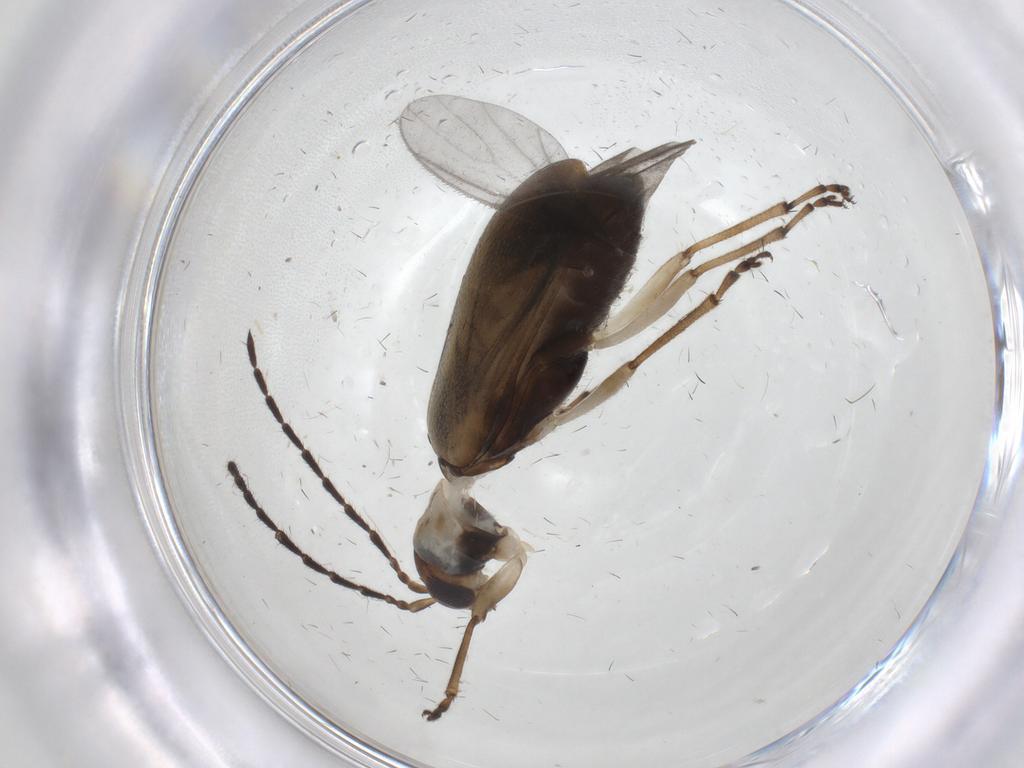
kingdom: Animalia
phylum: Arthropoda
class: Insecta
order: Coleoptera
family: Chrysomelidae
